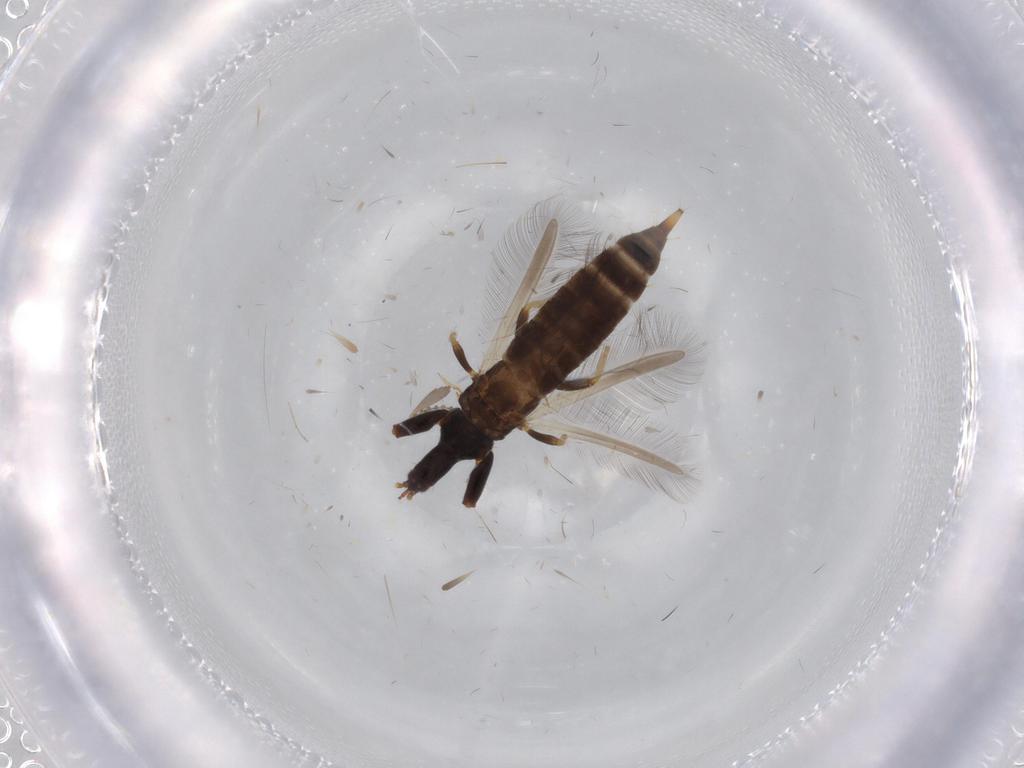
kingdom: Animalia
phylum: Arthropoda
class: Insecta
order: Thysanoptera
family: Phlaeothripidae
